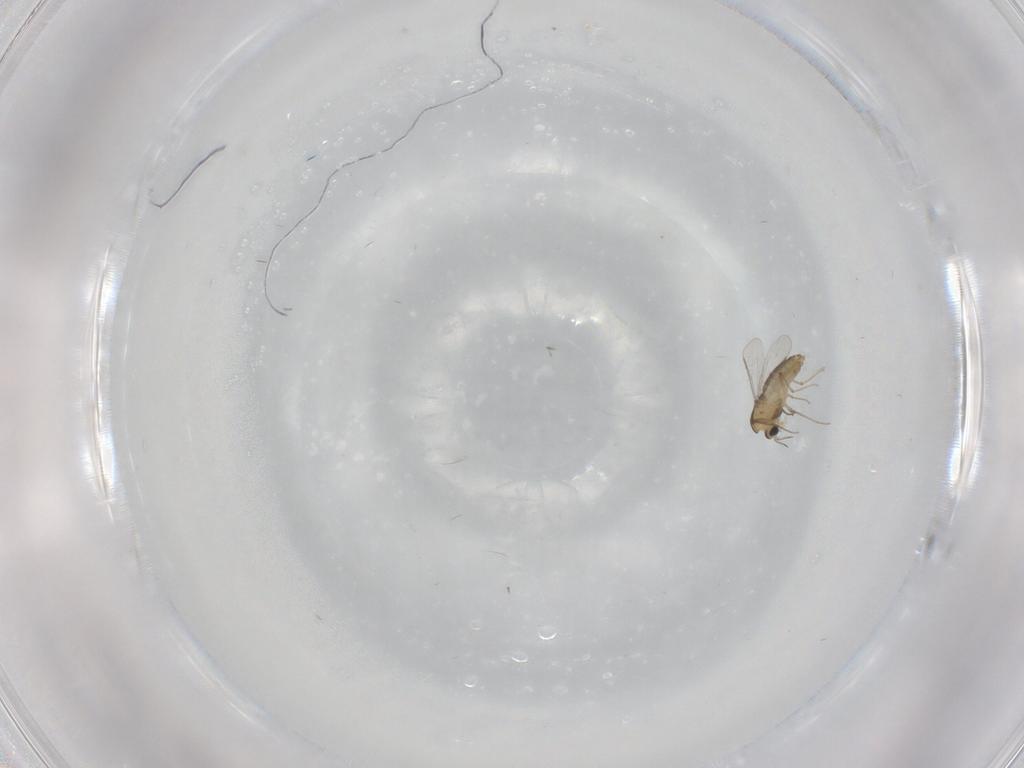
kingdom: Animalia
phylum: Arthropoda
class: Insecta
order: Diptera
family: Chironomidae
